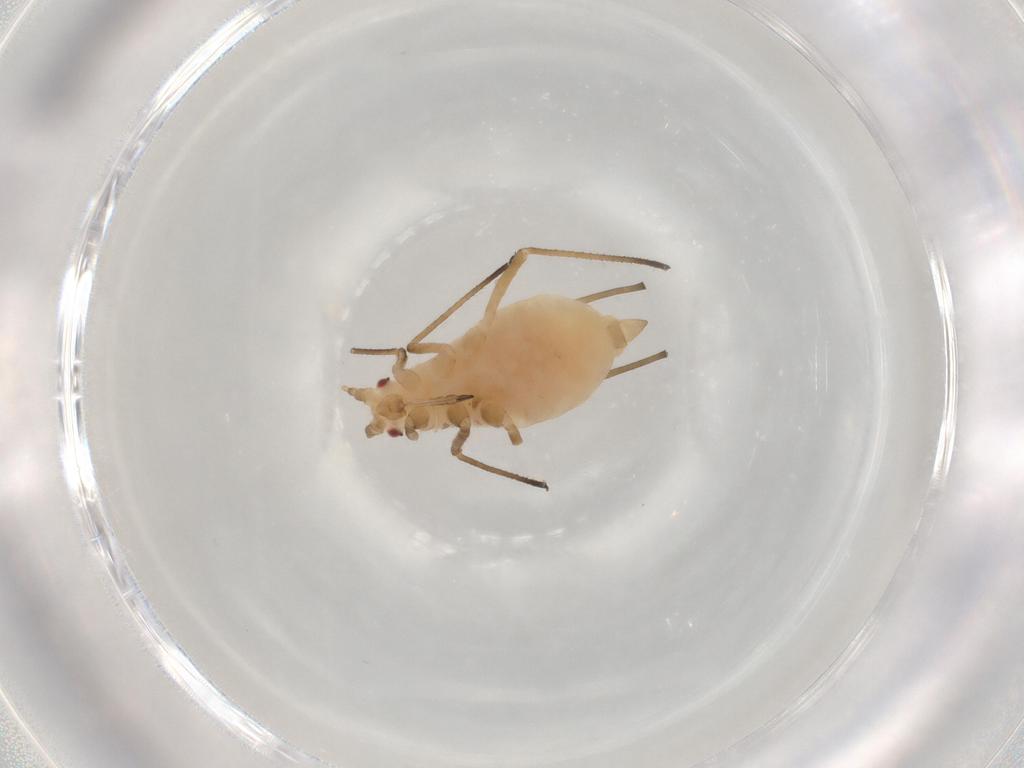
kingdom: Animalia
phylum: Arthropoda
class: Insecta
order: Hemiptera
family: Aphididae
